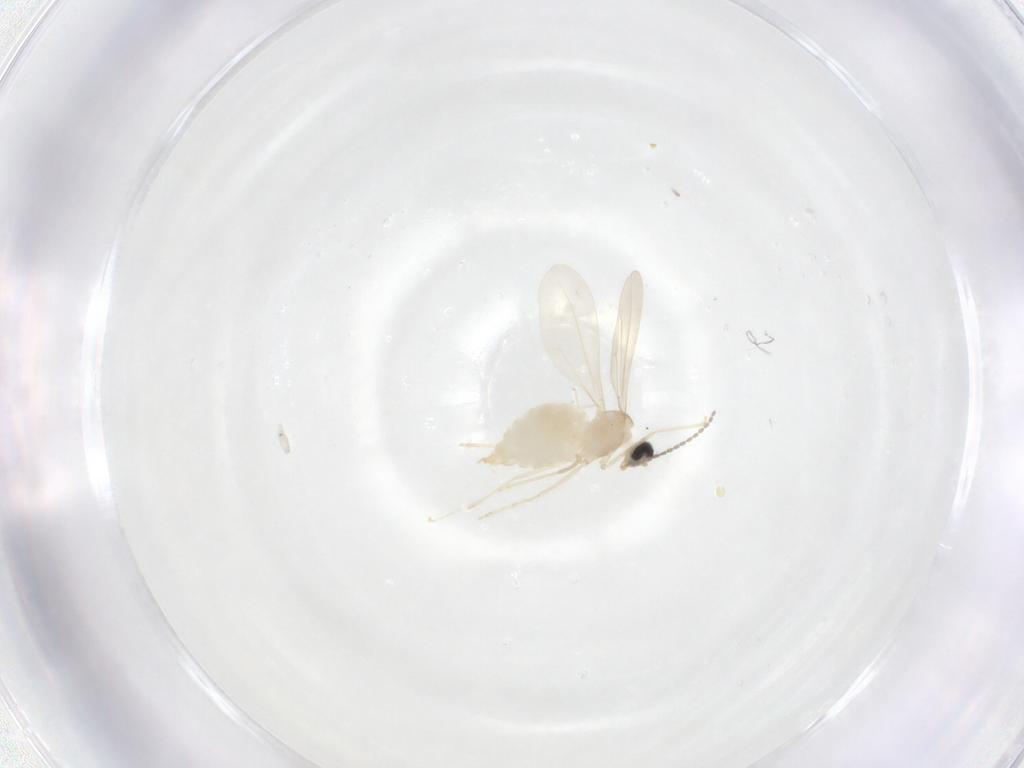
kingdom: Animalia
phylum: Arthropoda
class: Insecta
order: Diptera
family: Cecidomyiidae
